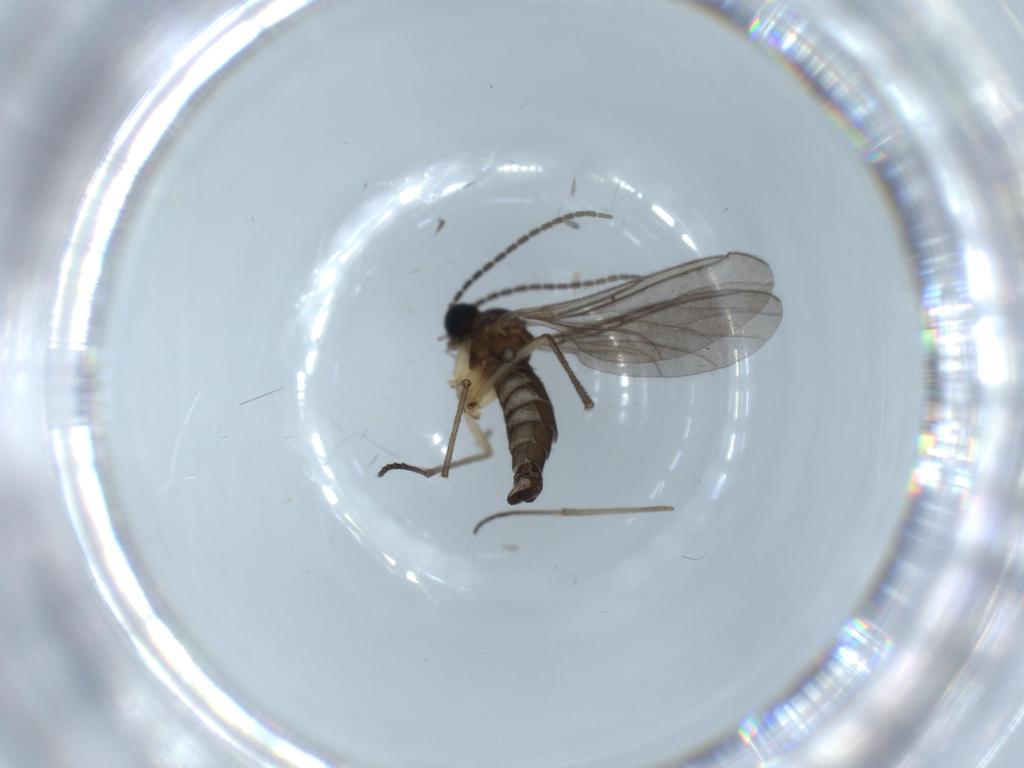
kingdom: Animalia
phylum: Arthropoda
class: Insecta
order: Diptera
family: Sciaridae
